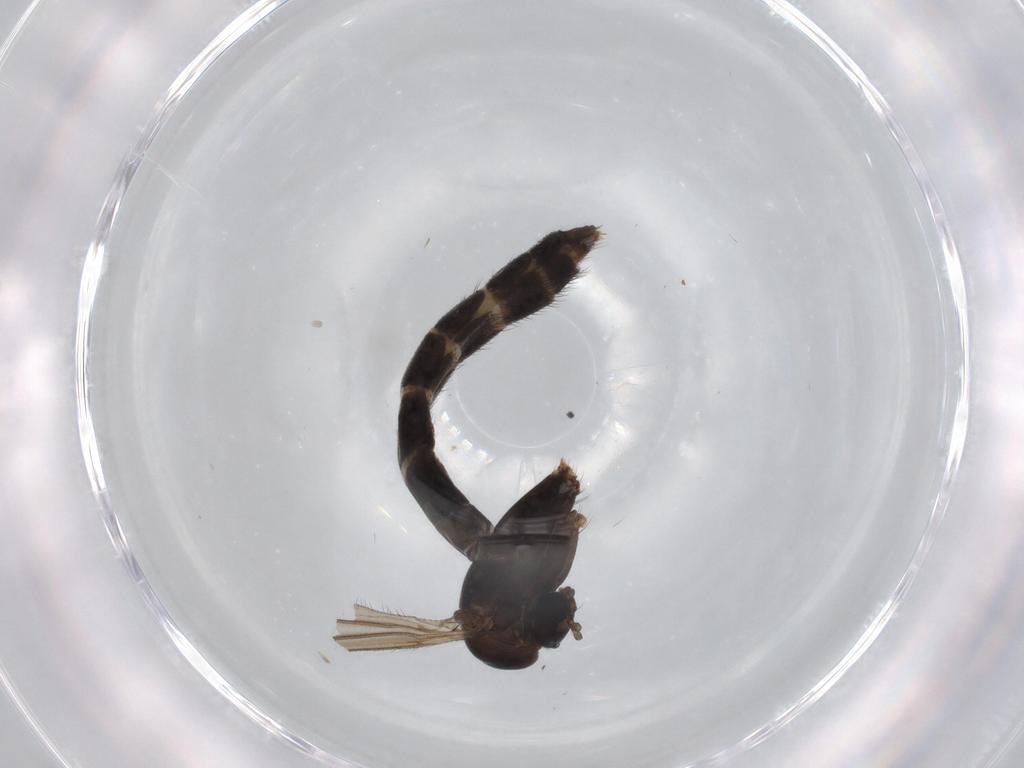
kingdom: Animalia
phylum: Arthropoda
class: Insecta
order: Diptera
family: Ditomyiidae
